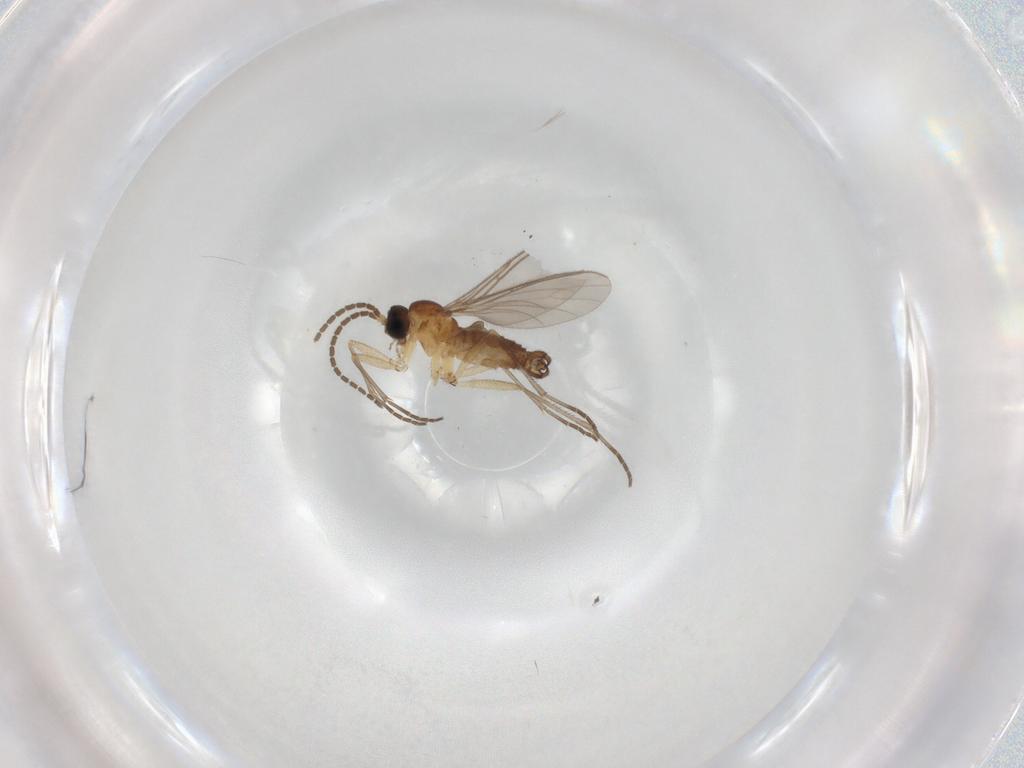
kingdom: Animalia
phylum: Arthropoda
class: Insecta
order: Diptera
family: Sciaridae
